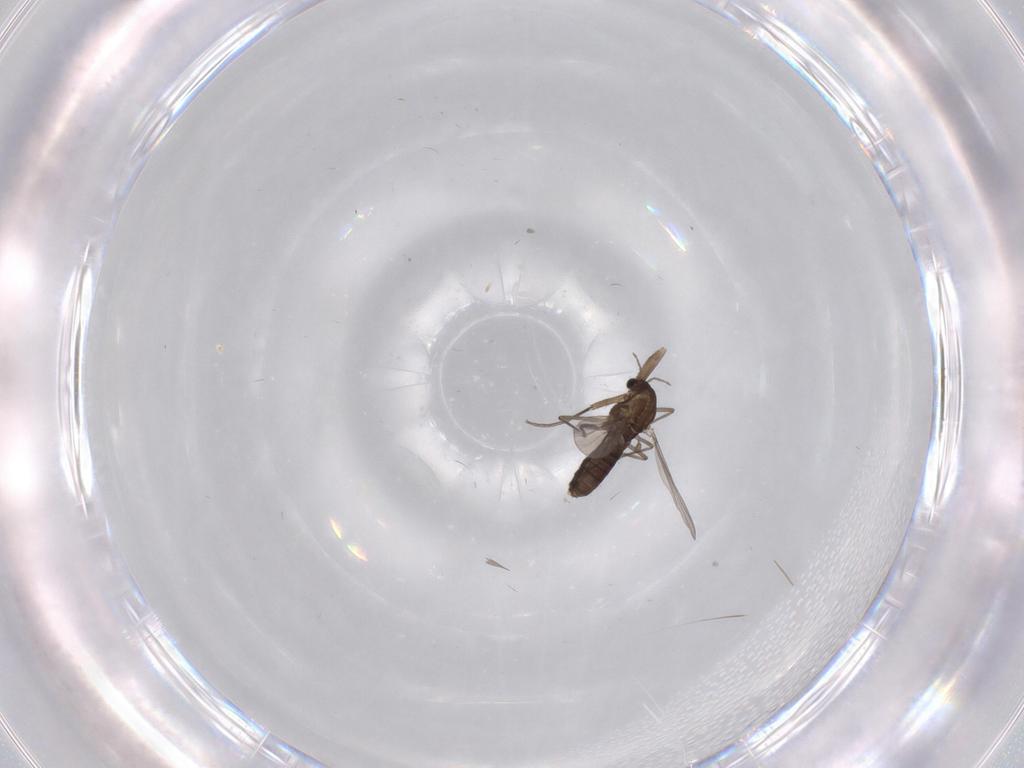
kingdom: Animalia
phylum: Arthropoda
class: Insecta
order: Diptera
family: Chironomidae
